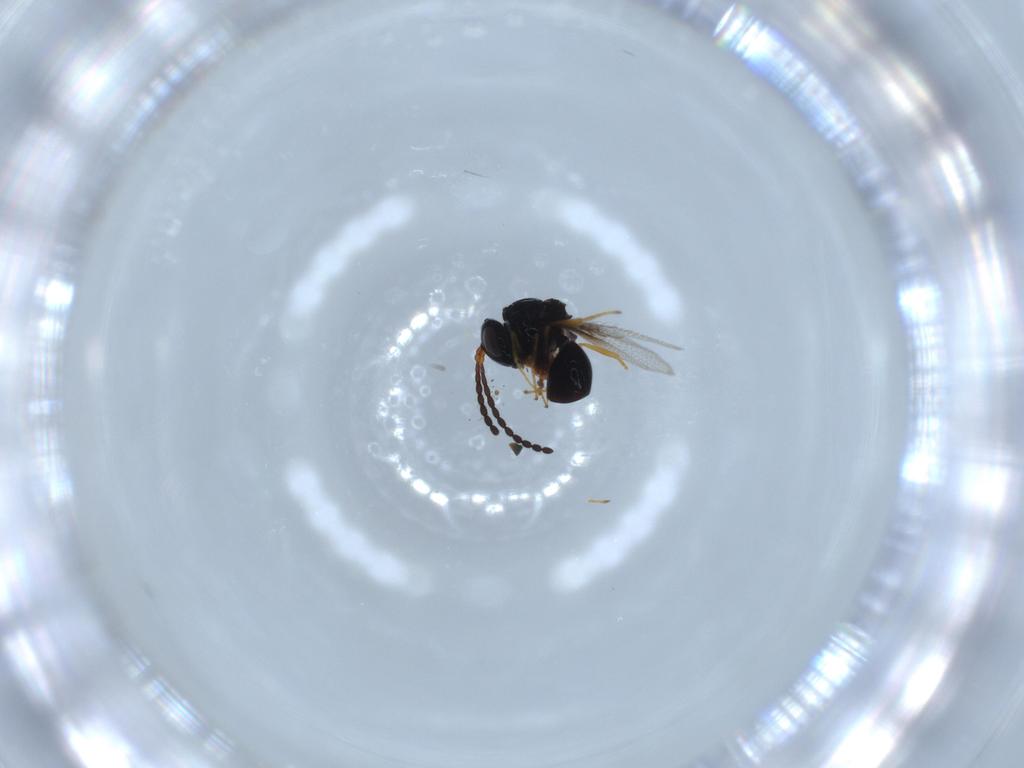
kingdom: Animalia
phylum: Arthropoda
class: Insecta
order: Hymenoptera
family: Figitidae
